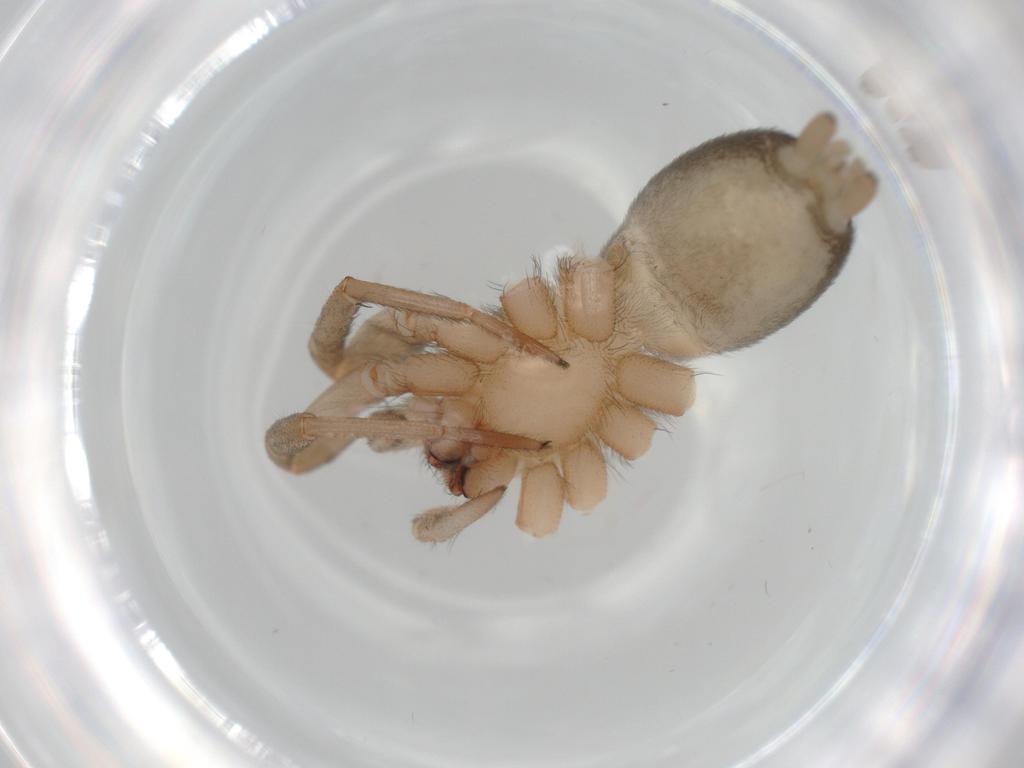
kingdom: Animalia
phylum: Arthropoda
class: Arachnida
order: Araneae
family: Gnaphosidae
